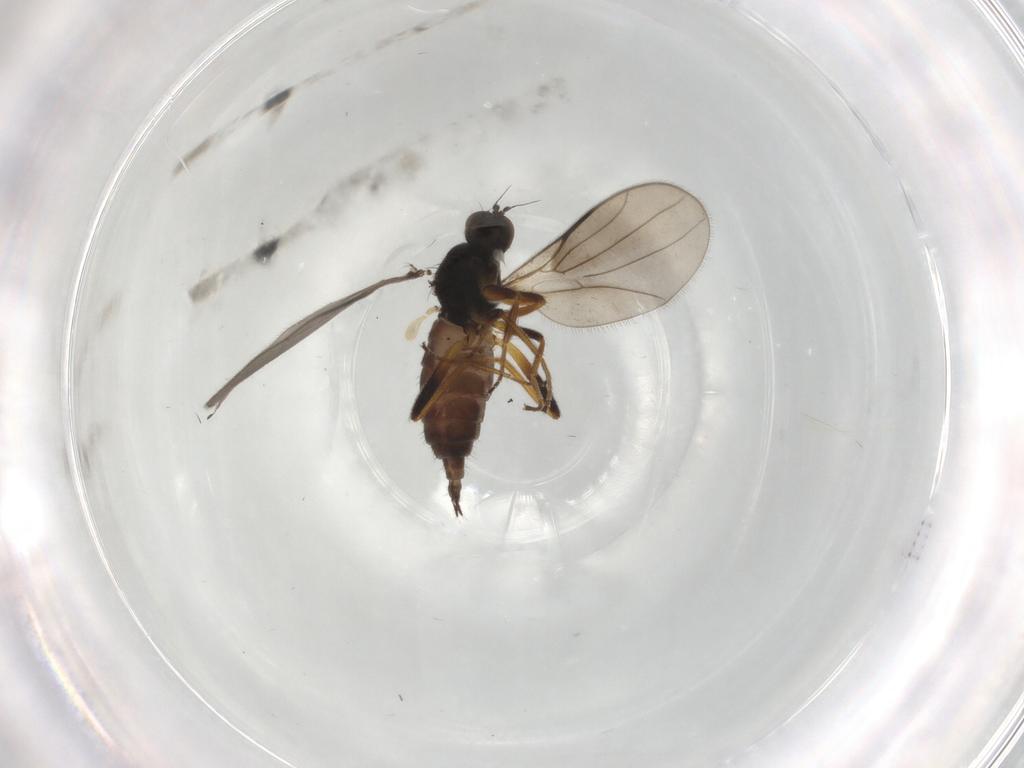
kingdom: Animalia
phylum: Arthropoda
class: Insecta
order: Diptera
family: Hybotidae
